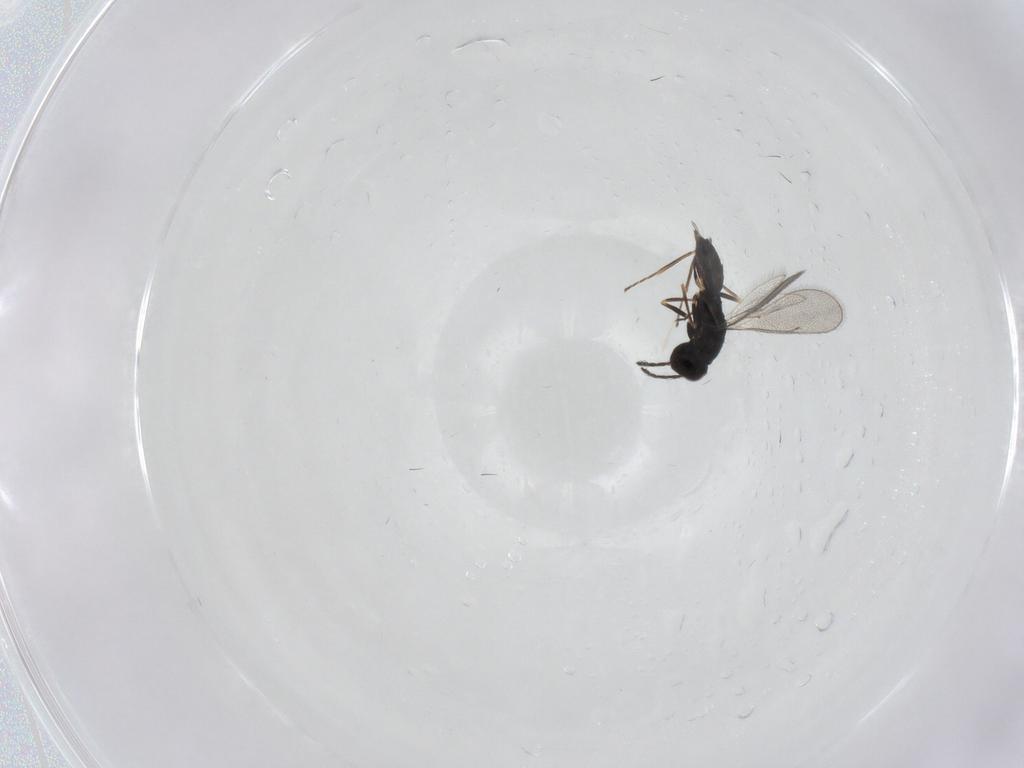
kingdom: Animalia
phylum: Arthropoda
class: Insecta
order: Hymenoptera
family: Eulophidae
